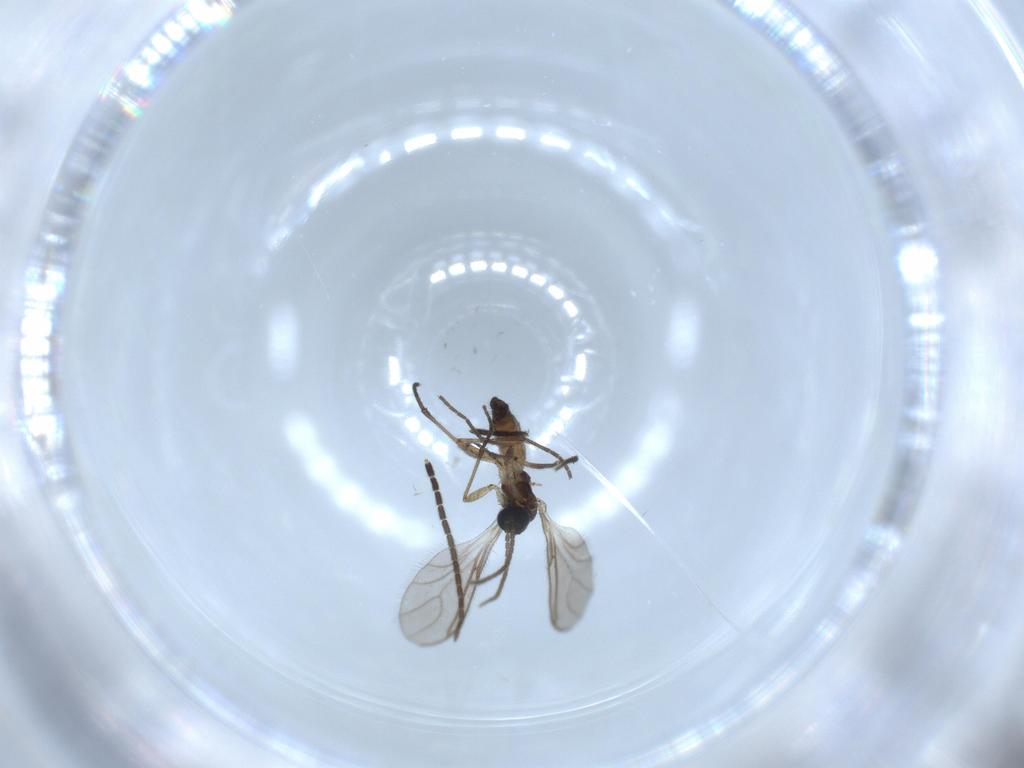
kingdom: Animalia
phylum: Arthropoda
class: Insecta
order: Diptera
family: Sciaridae
